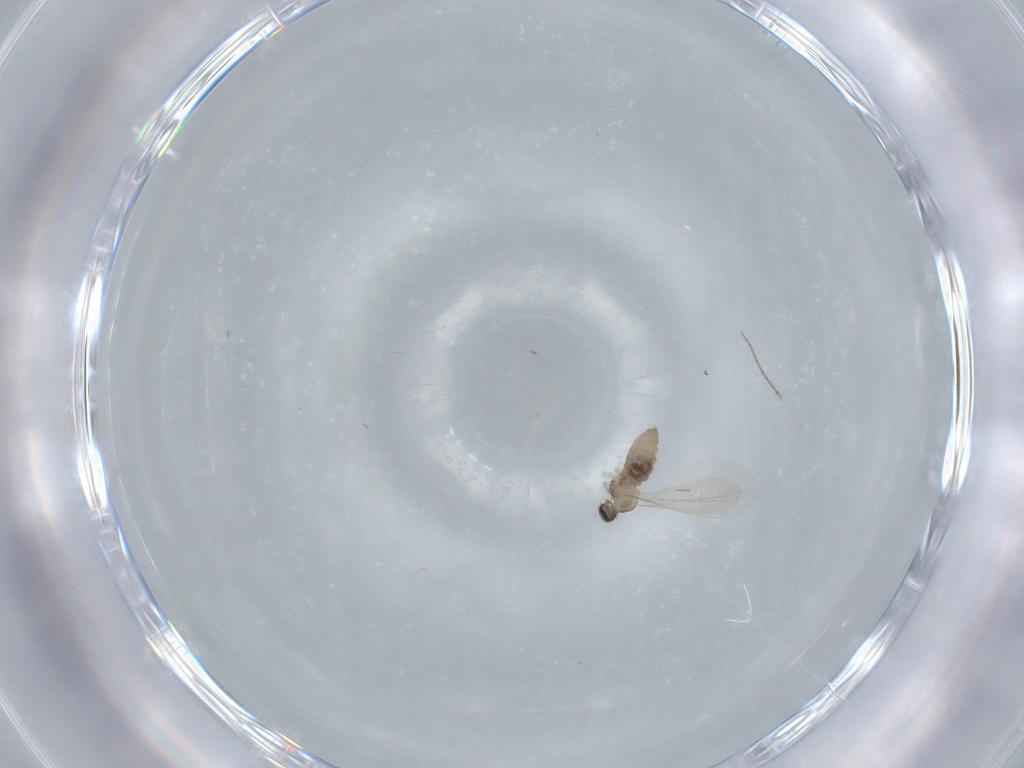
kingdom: Animalia
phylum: Arthropoda
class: Insecta
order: Diptera
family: Cecidomyiidae
